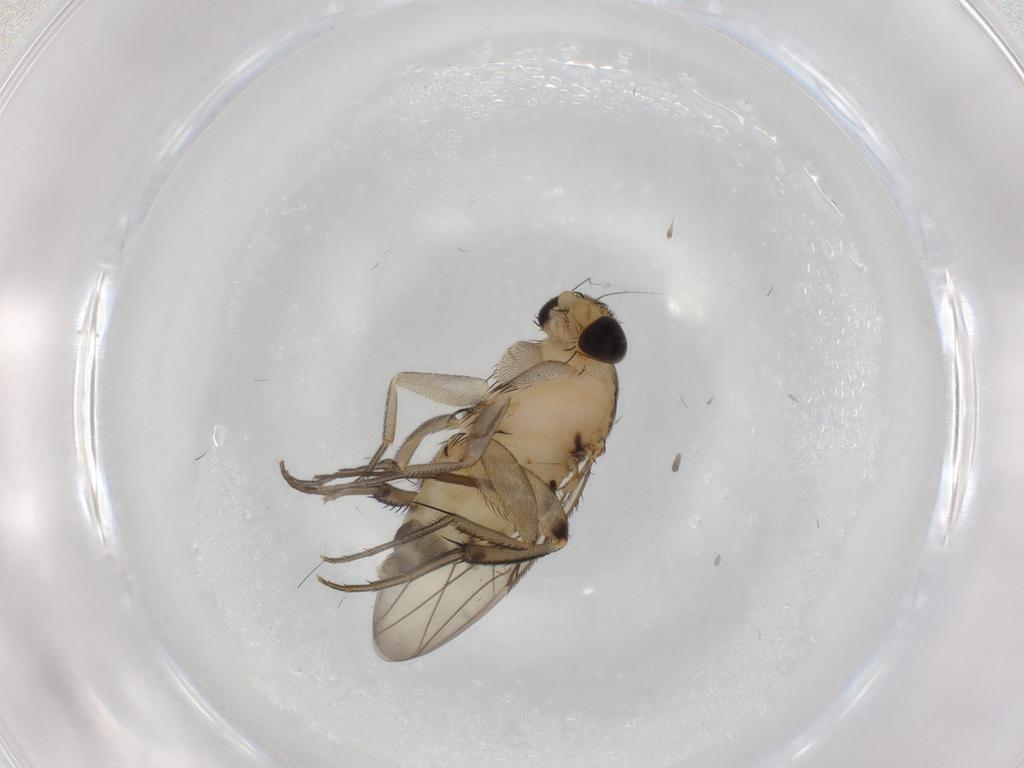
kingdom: Animalia
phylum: Arthropoda
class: Insecta
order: Diptera
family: Phoridae
